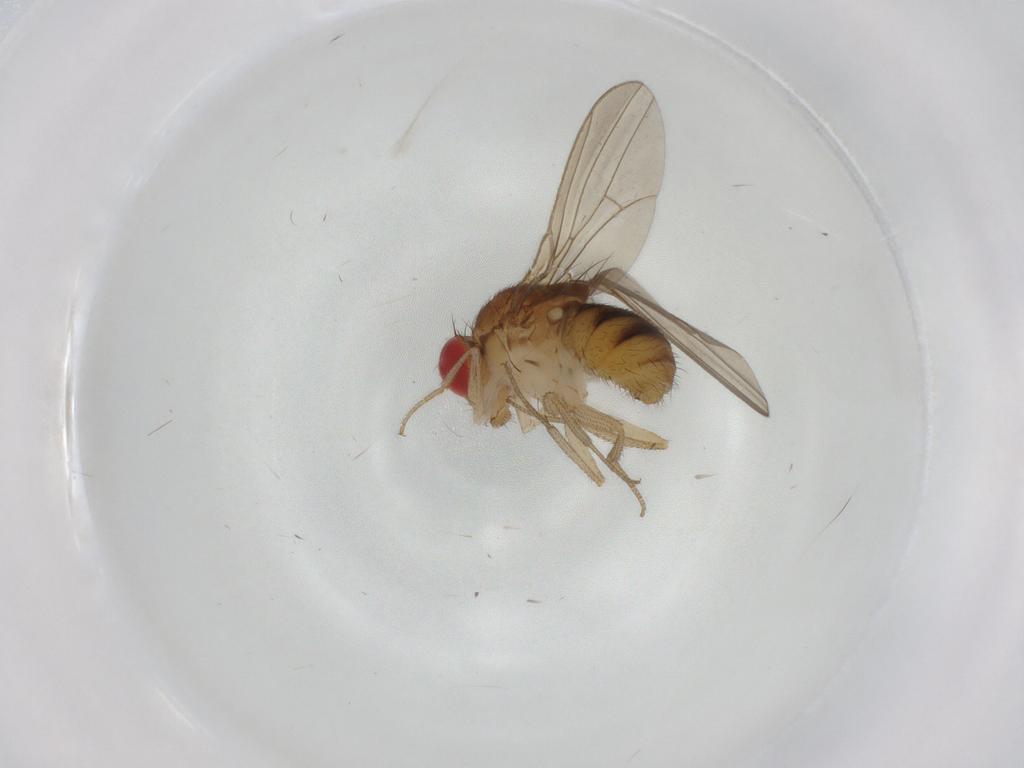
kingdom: Animalia
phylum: Arthropoda
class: Insecta
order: Diptera
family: Drosophilidae
